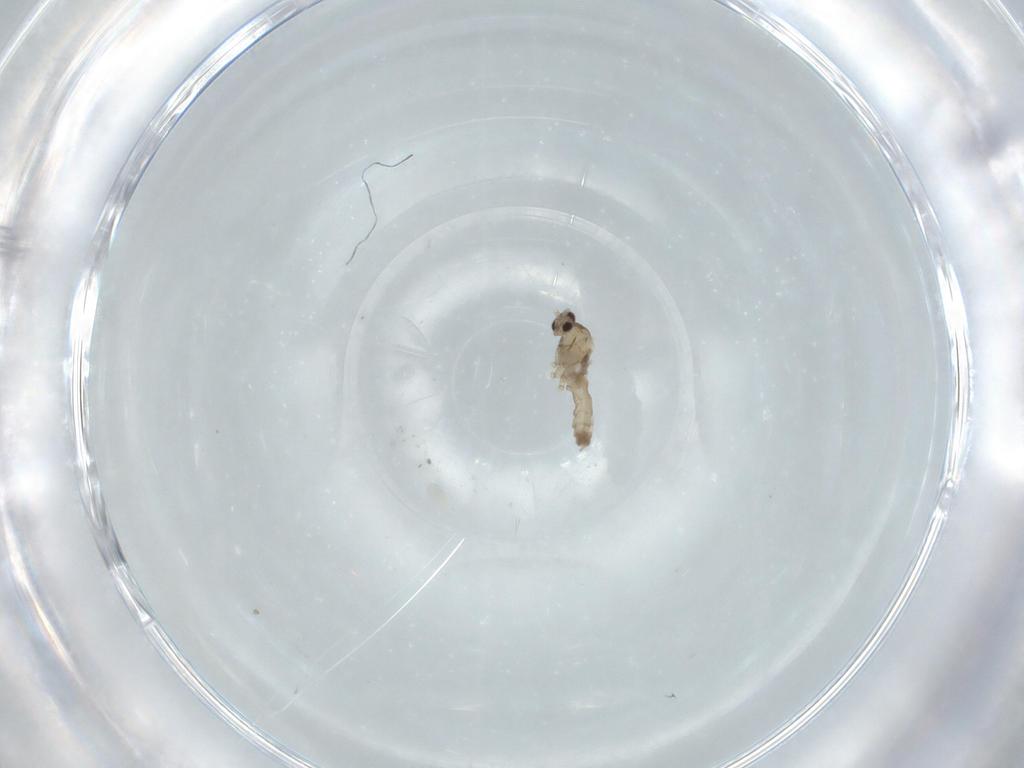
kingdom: Animalia
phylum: Arthropoda
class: Insecta
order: Diptera
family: Cecidomyiidae
